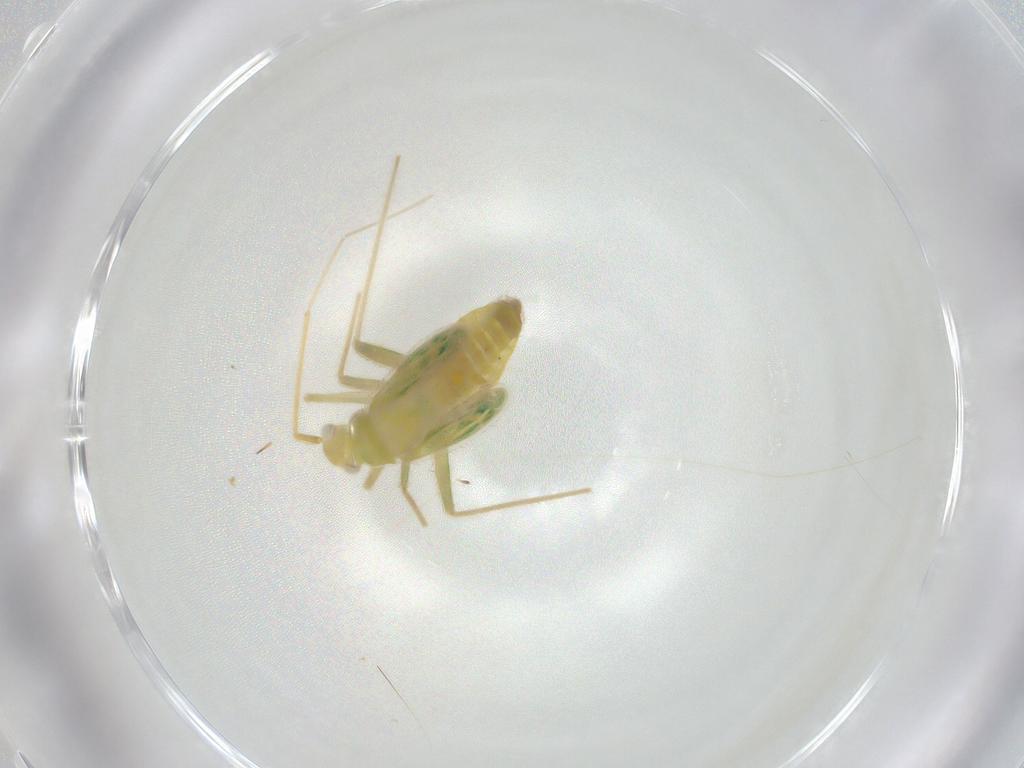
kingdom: Animalia
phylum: Arthropoda
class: Insecta
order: Hemiptera
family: Miridae
